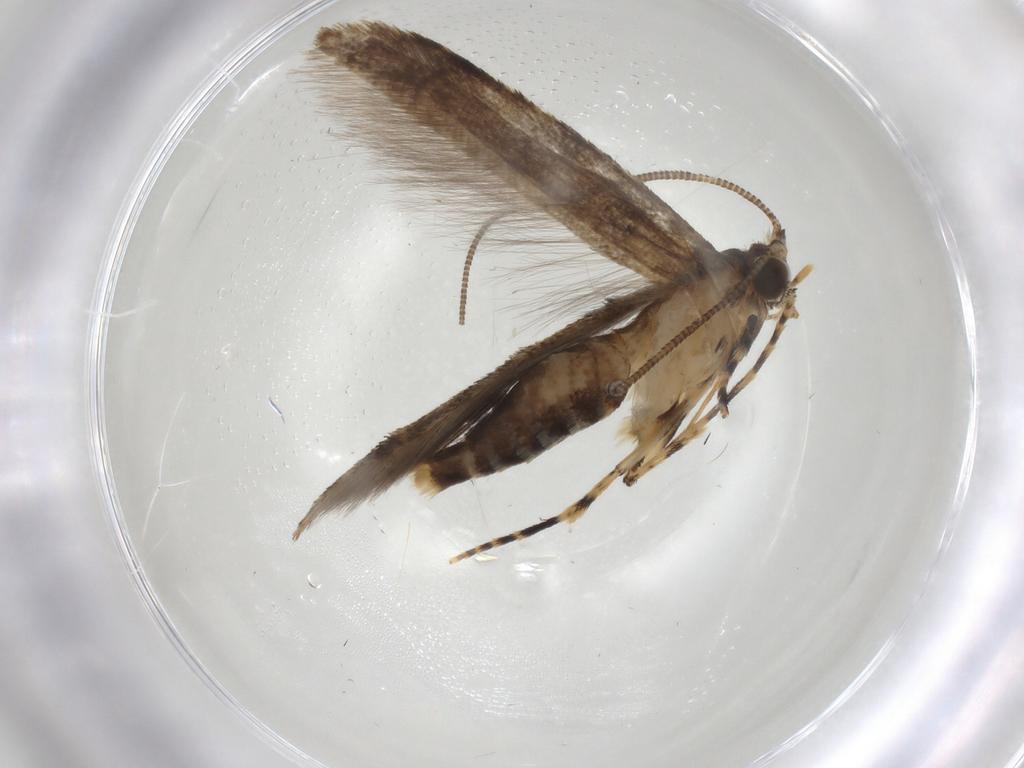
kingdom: Animalia
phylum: Arthropoda
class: Insecta
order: Lepidoptera
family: Tineidae
